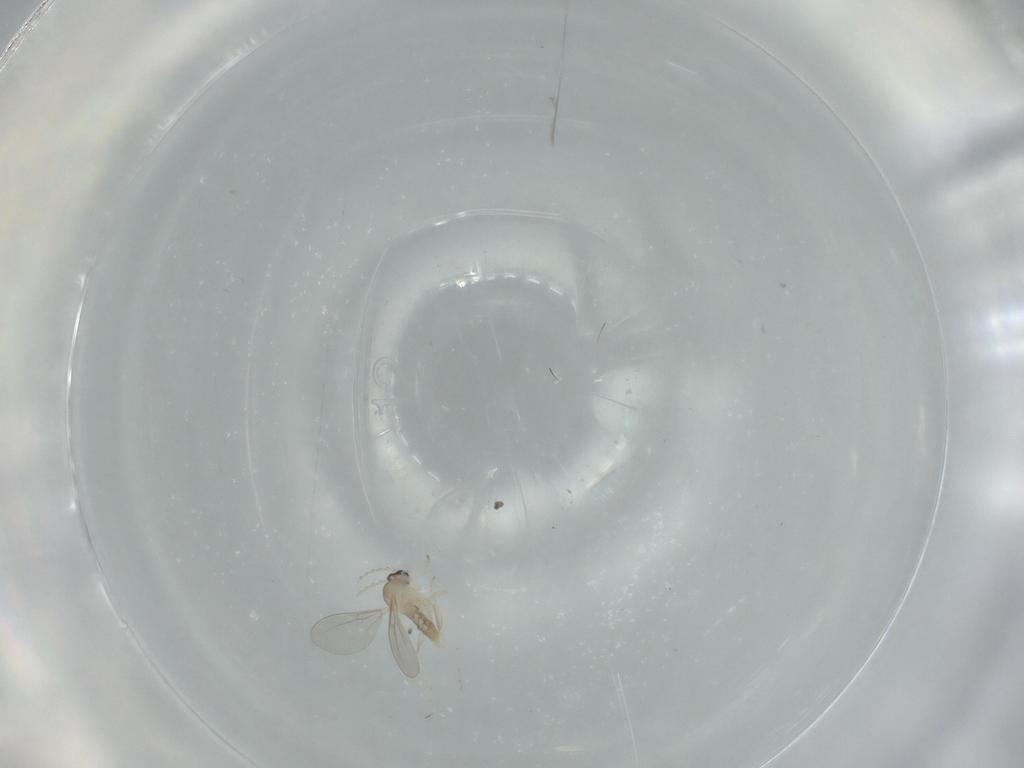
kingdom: Animalia
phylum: Arthropoda
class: Insecta
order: Diptera
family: Cecidomyiidae
